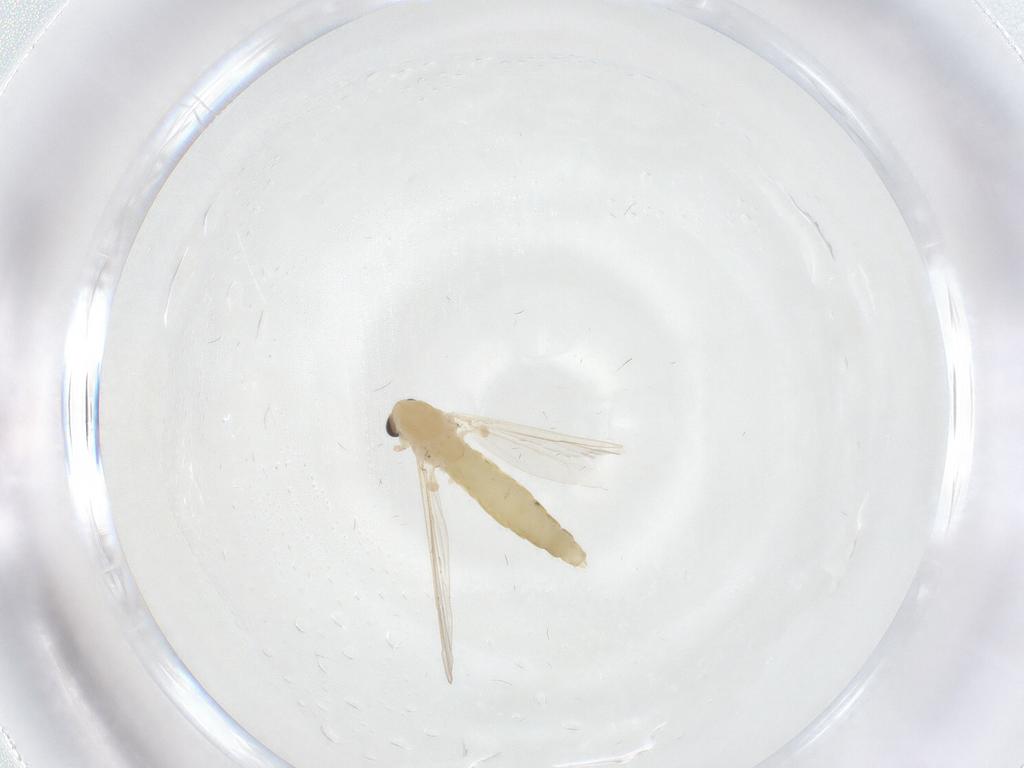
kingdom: Animalia
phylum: Arthropoda
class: Insecta
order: Diptera
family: Chironomidae
